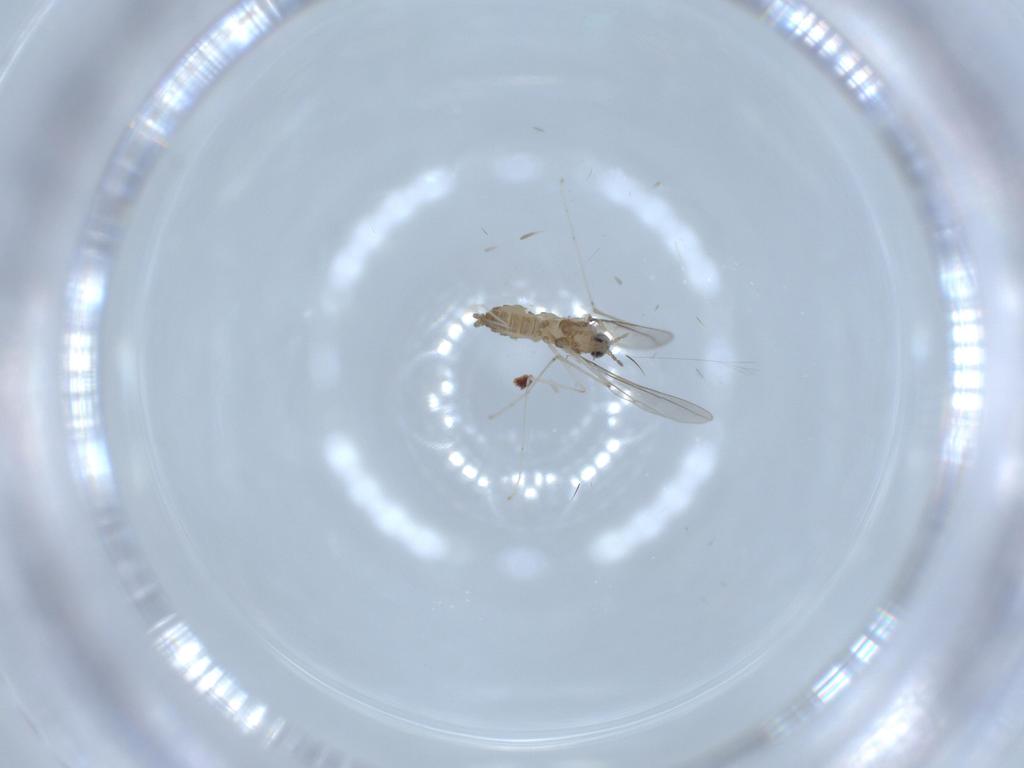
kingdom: Animalia
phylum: Arthropoda
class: Insecta
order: Diptera
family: Cecidomyiidae
